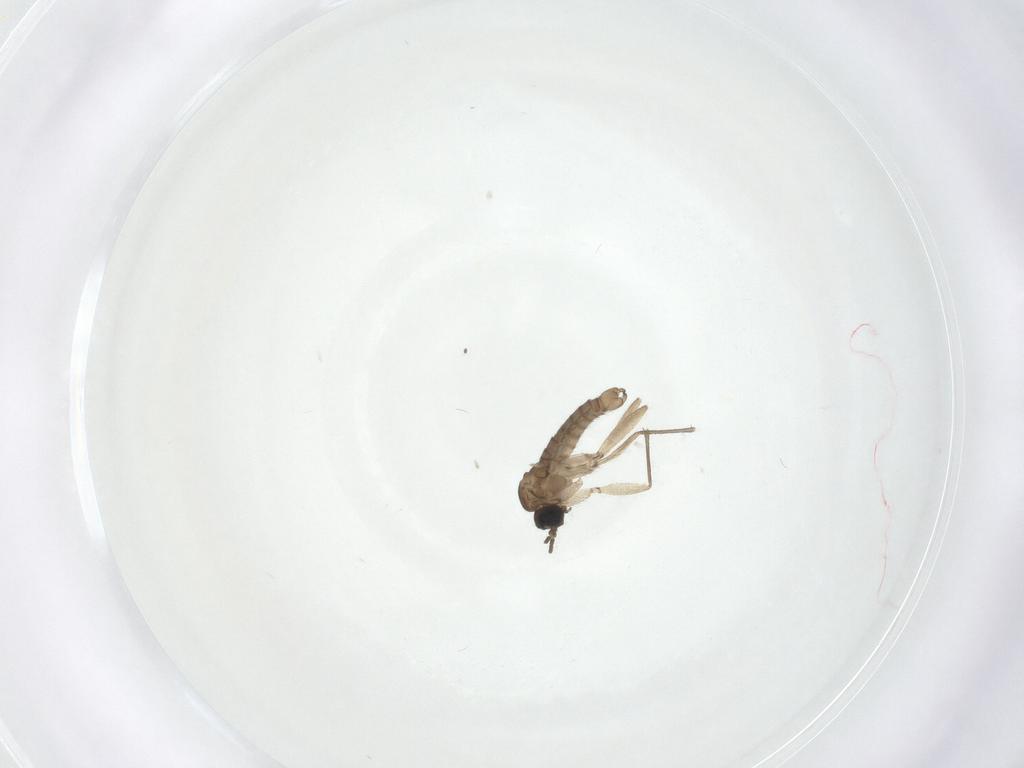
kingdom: Animalia
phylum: Arthropoda
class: Insecta
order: Diptera
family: Sciaridae
